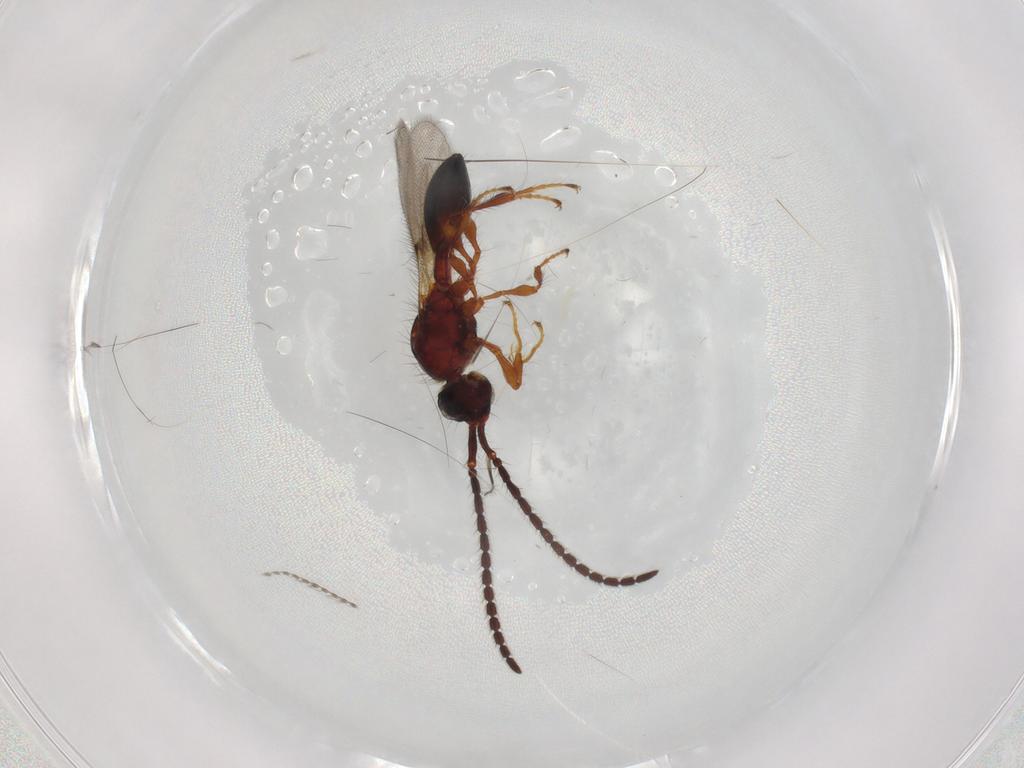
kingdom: Animalia
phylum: Arthropoda
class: Insecta
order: Hymenoptera
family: Diapriidae
